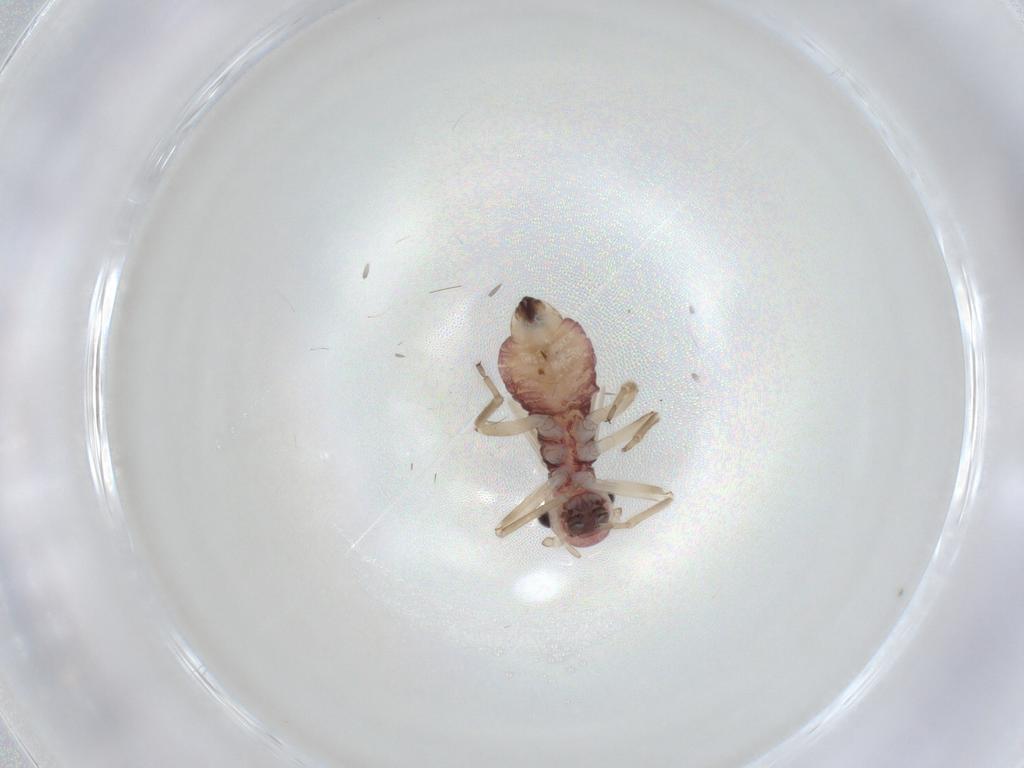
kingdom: Animalia
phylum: Arthropoda
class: Insecta
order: Psocodea
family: Caeciliusidae
